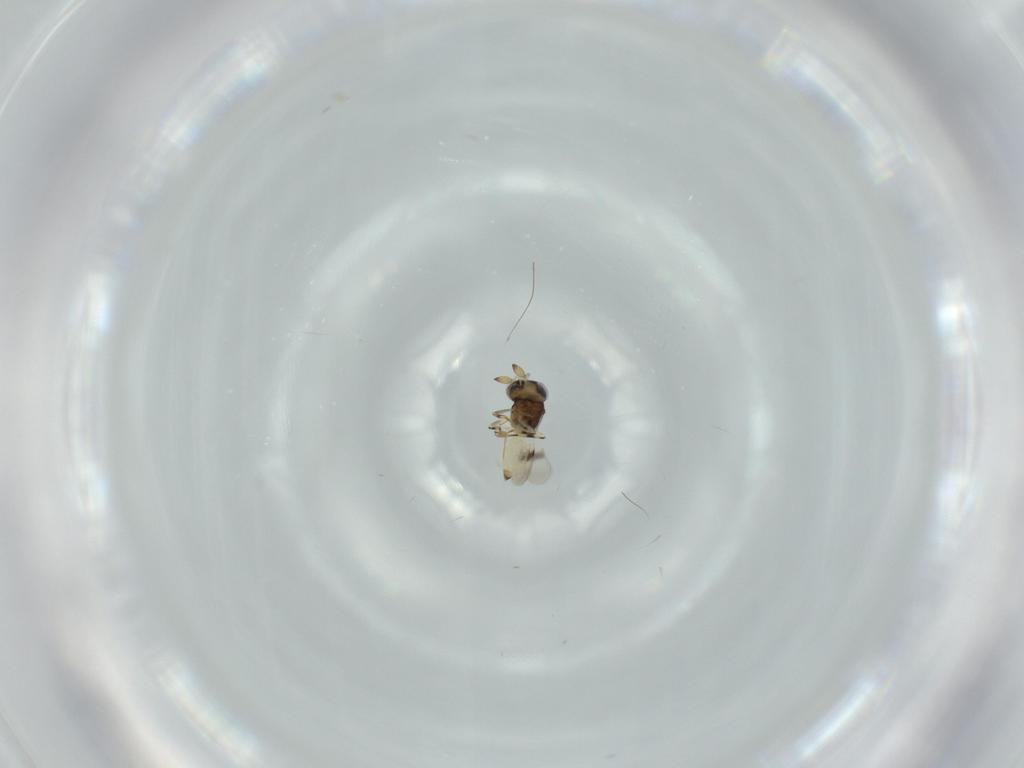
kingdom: Animalia
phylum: Arthropoda
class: Insecta
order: Hymenoptera
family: Scelionidae
